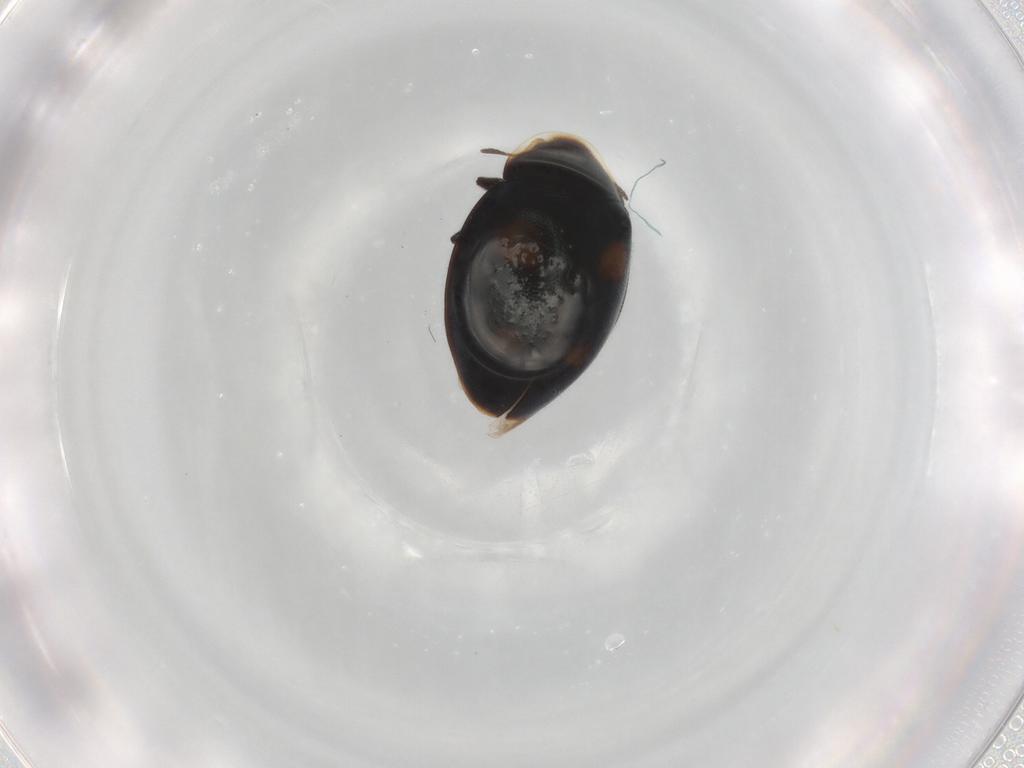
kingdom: Animalia
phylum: Arthropoda
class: Insecta
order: Coleoptera
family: Coccinellidae
